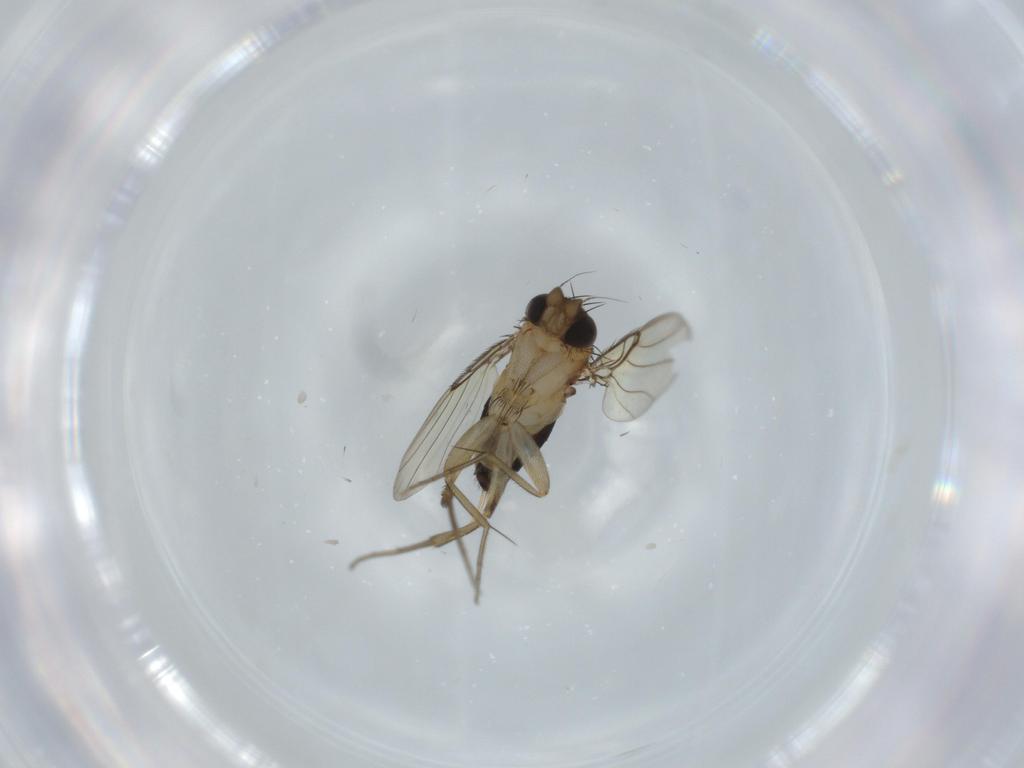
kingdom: Animalia
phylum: Arthropoda
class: Insecta
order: Diptera
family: Phoridae
